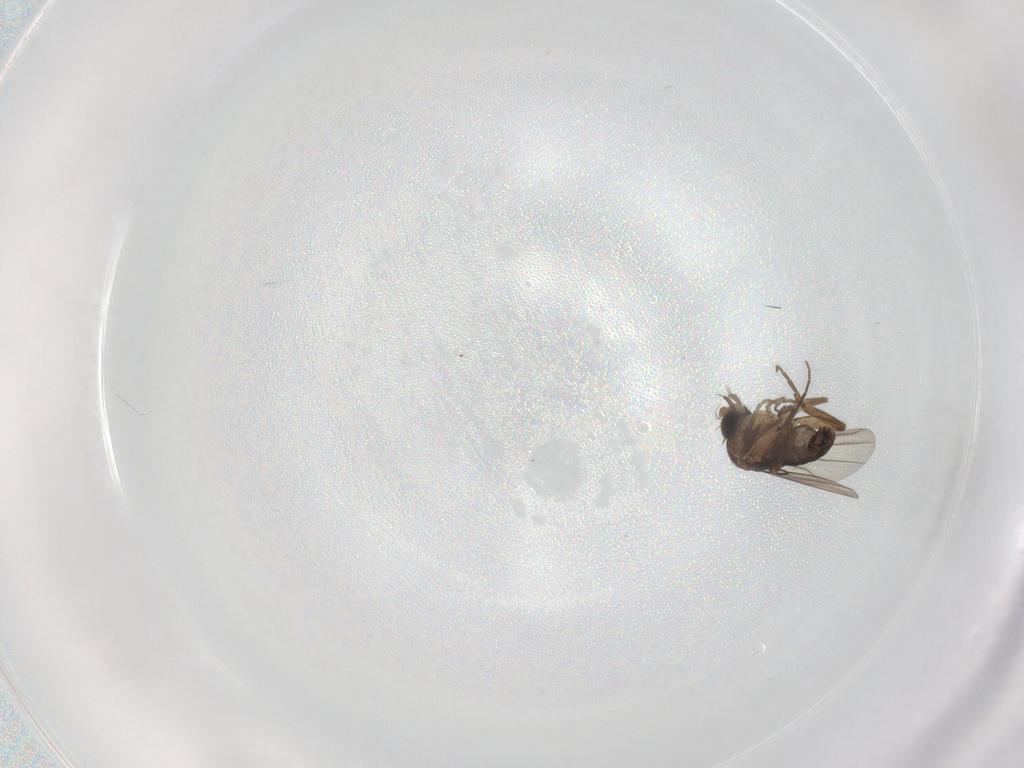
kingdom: Animalia
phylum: Arthropoda
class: Insecta
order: Diptera
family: Phoridae
